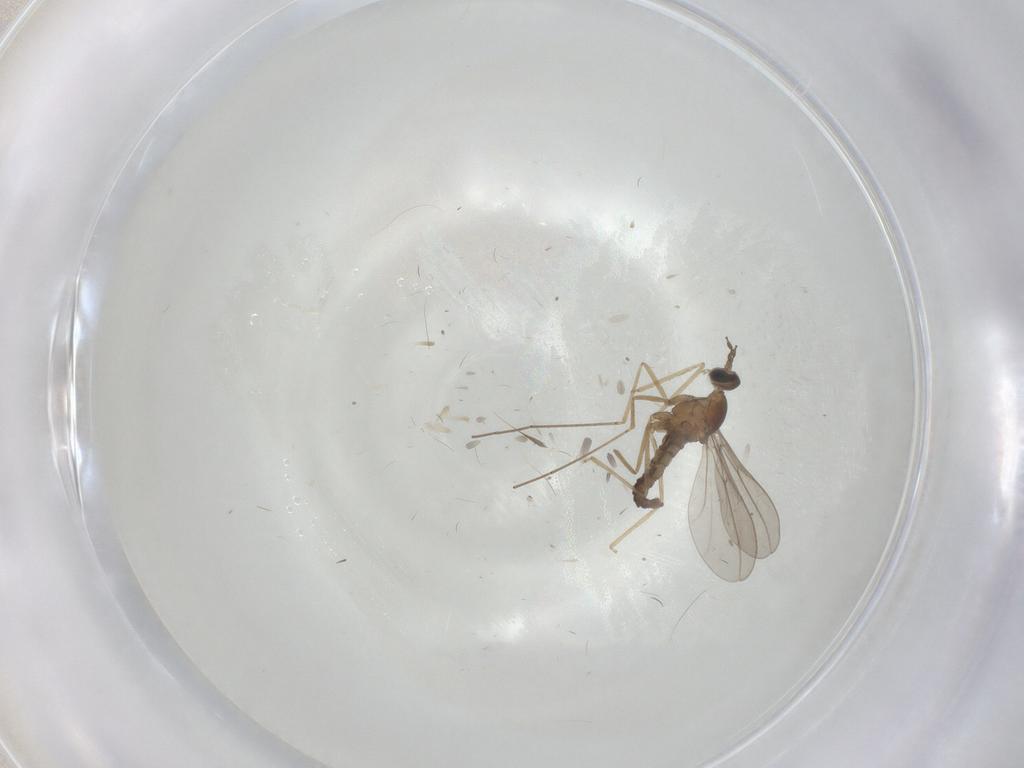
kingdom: Animalia
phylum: Arthropoda
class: Insecta
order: Diptera
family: Cecidomyiidae
